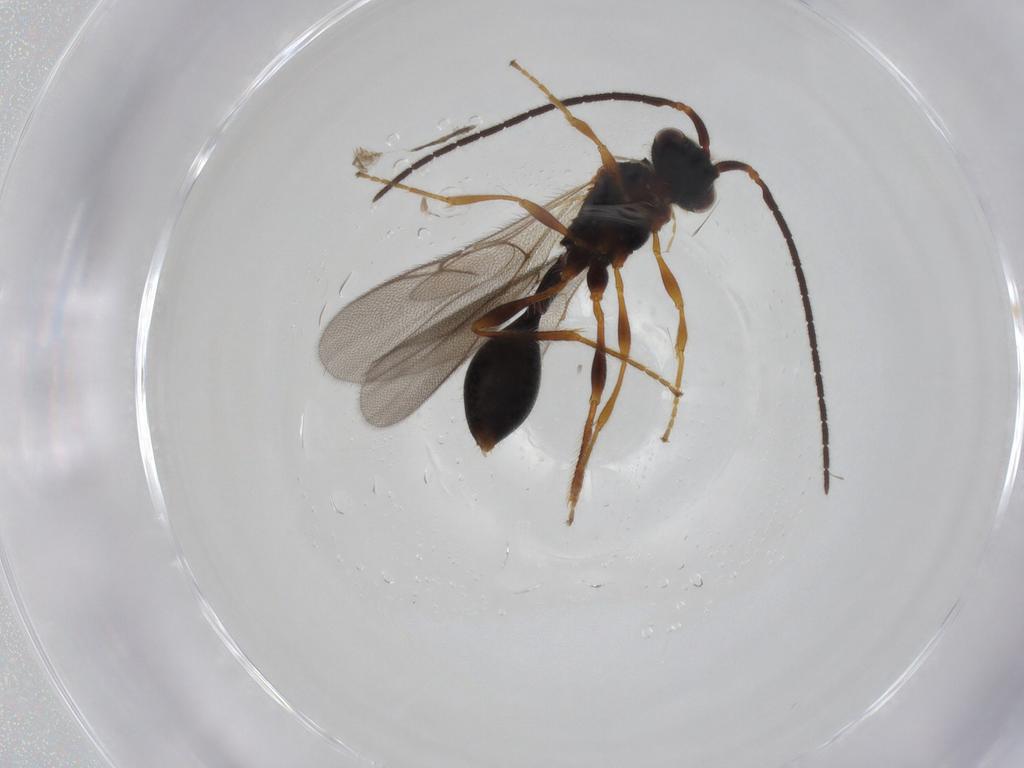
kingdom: Animalia
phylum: Arthropoda
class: Insecta
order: Hymenoptera
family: Diapriidae
